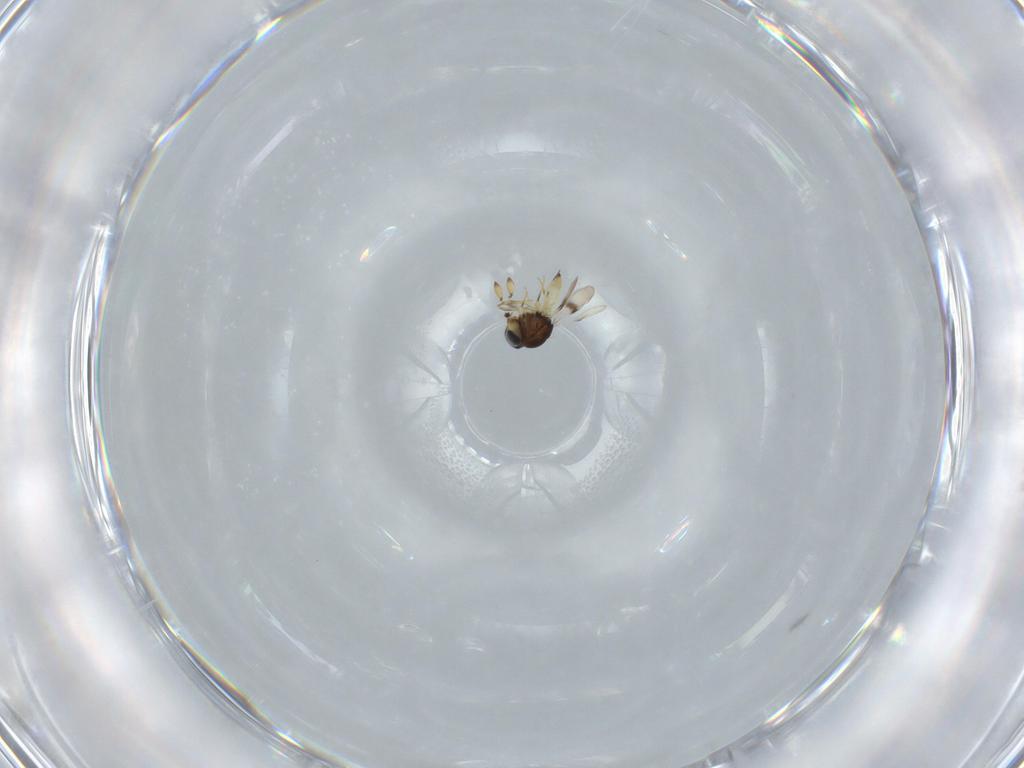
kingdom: Animalia
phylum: Arthropoda
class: Insecta
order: Hymenoptera
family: Scelionidae
